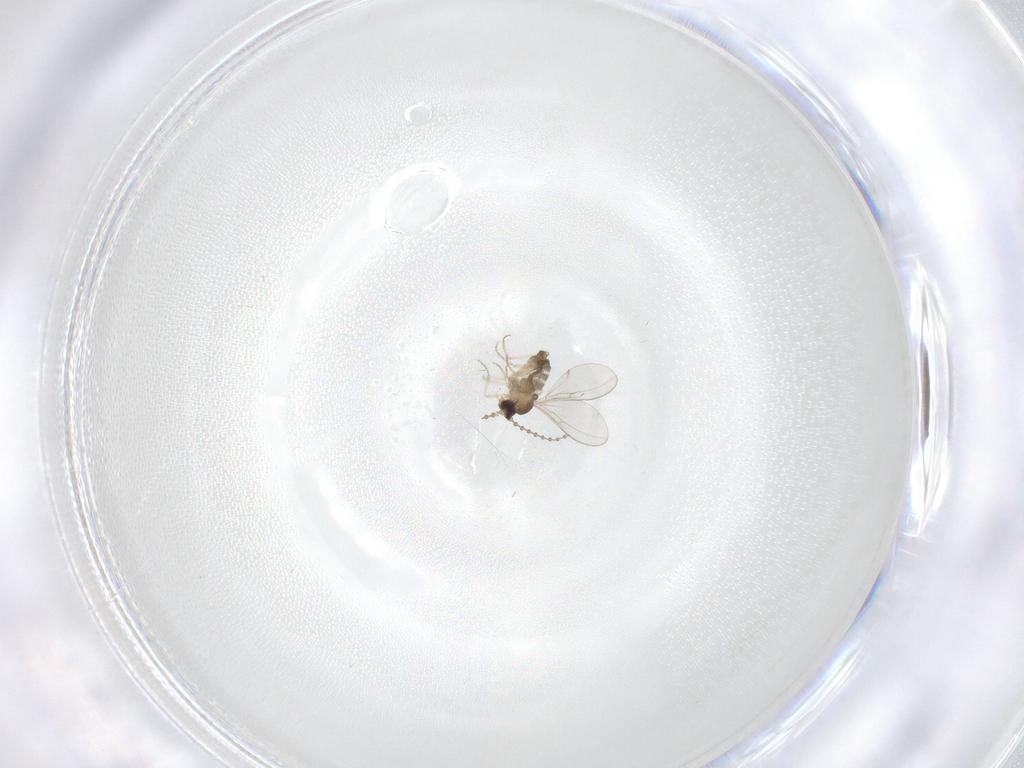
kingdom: Animalia
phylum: Arthropoda
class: Insecta
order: Diptera
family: Cecidomyiidae
